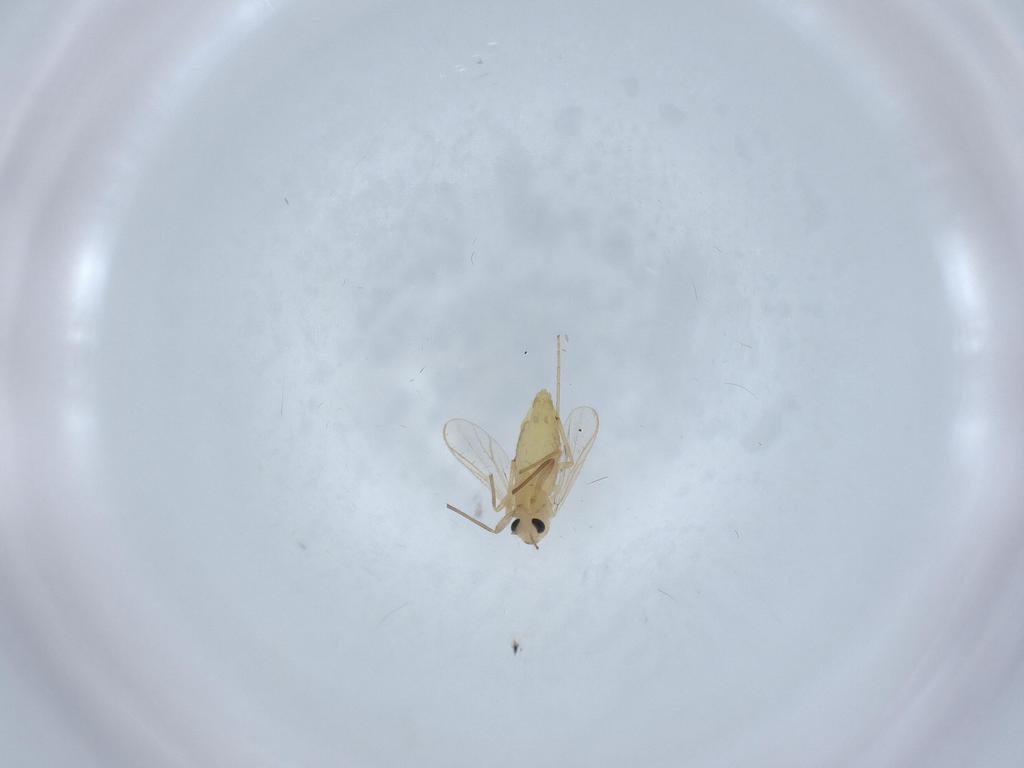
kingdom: Animalia
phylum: Arthropoda
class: Insecta
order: Diptera
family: Chironomidae
